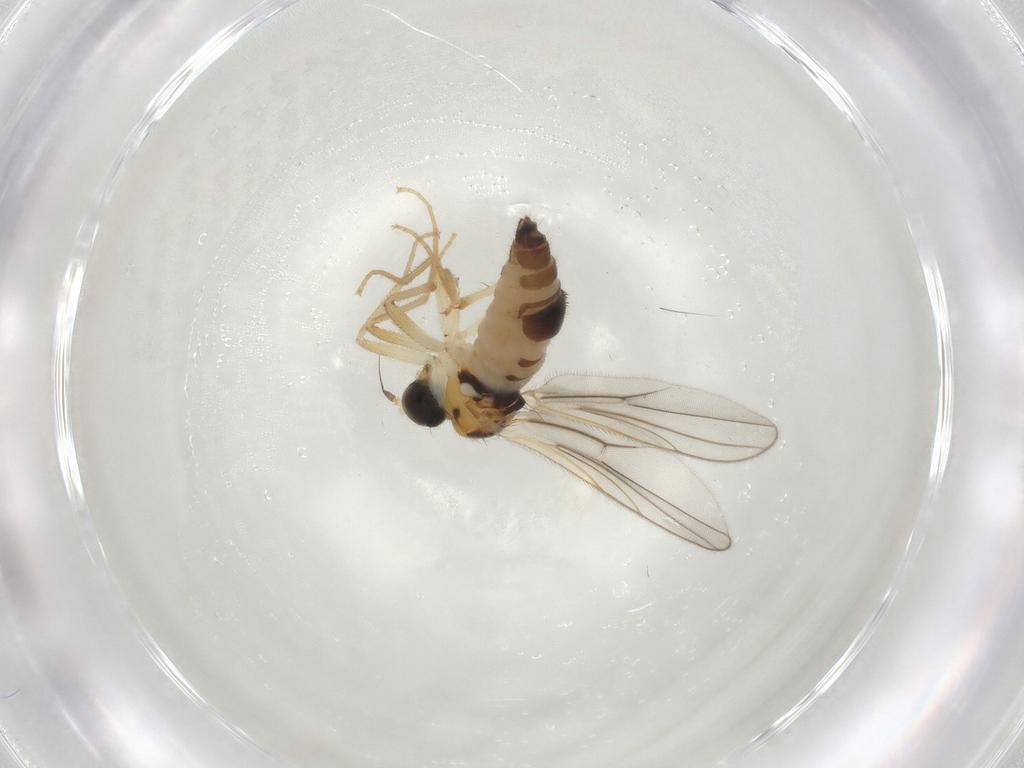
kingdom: Animalia
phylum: Arthropoda
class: Insecta
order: Diptera
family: Hybotidae
